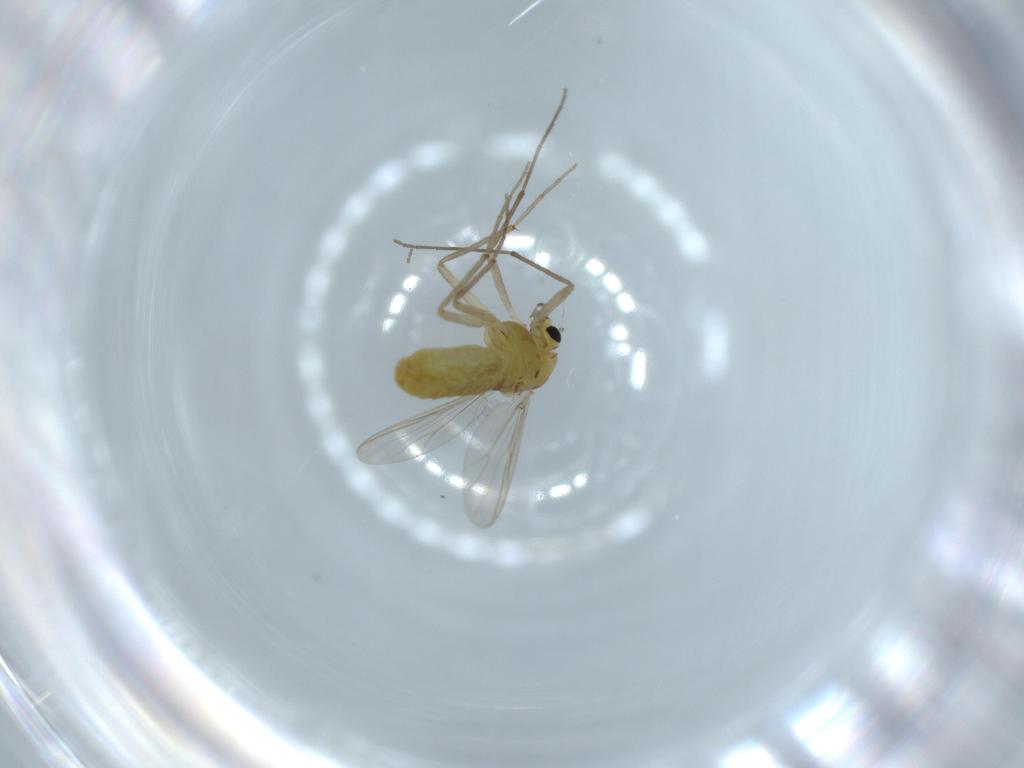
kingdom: Animalia
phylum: Arthropoda
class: Insecta
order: Diptera
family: Chironomidae
